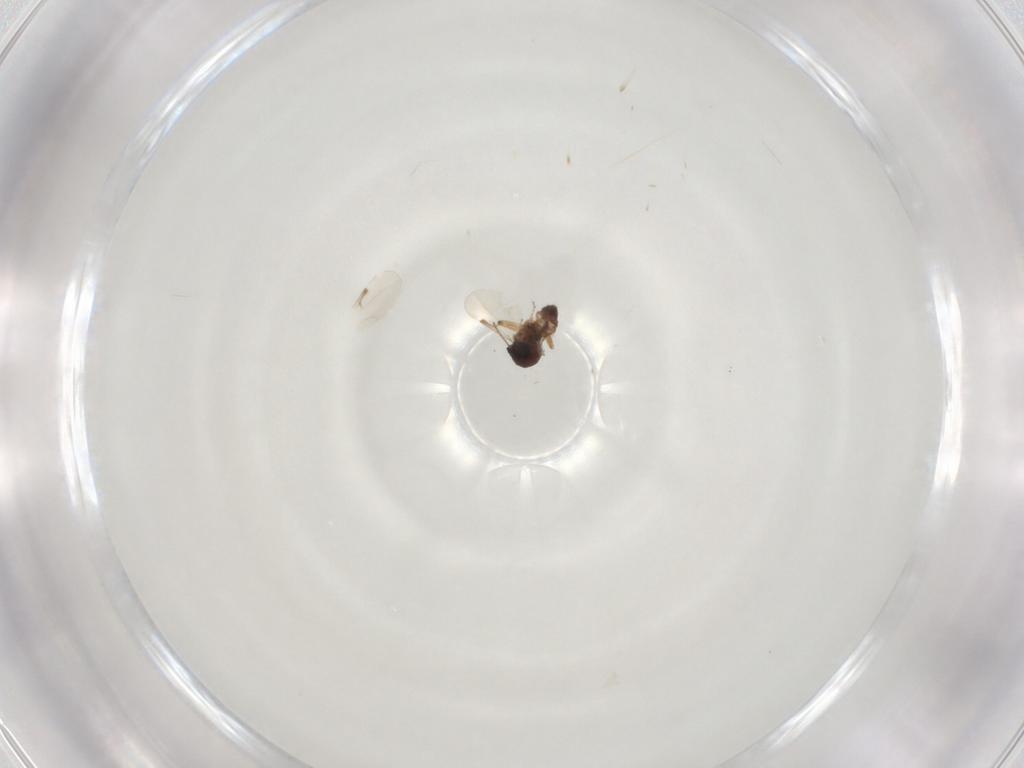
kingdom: Animalia
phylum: Arthropoda
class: Insecta
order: Diptera
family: Ceratopogonidae
